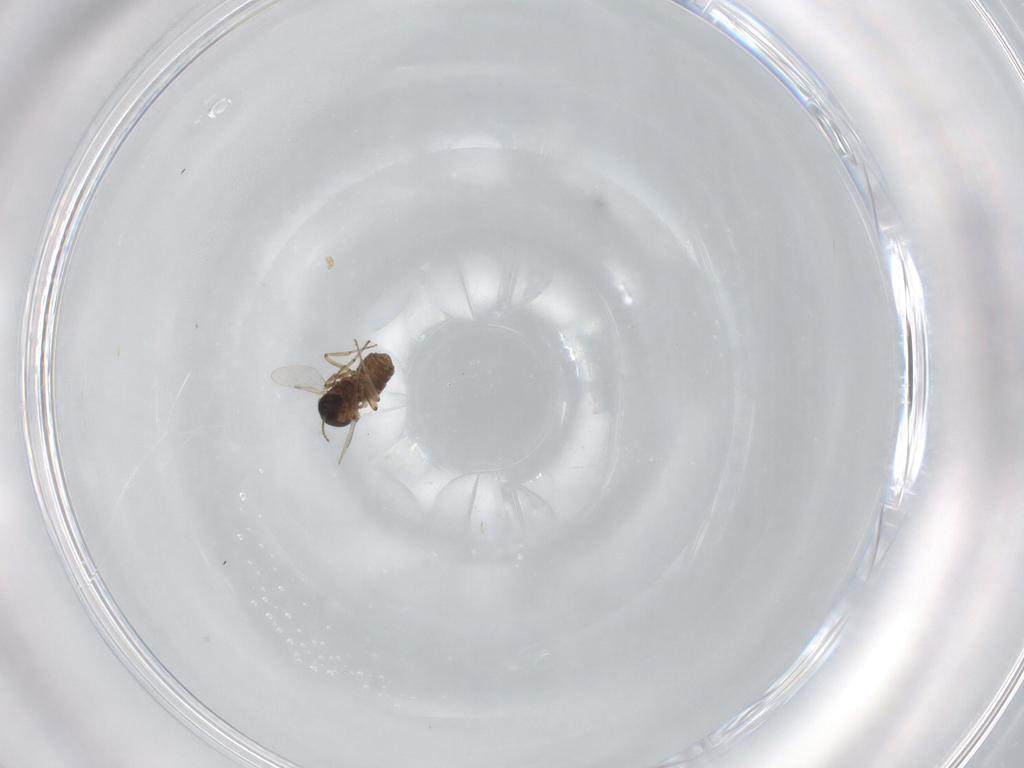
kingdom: Animalia
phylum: Arthropoda
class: Insecta
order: Diptera
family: Ceratopogonidae
